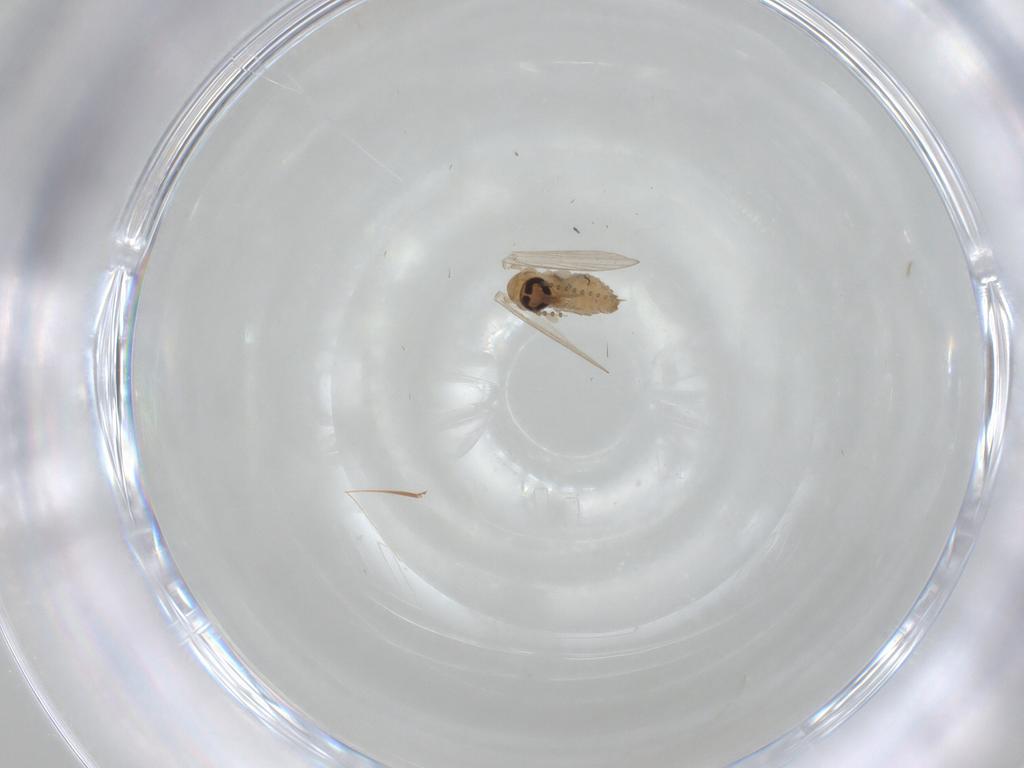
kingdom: Animalia
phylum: Arthropoda
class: Insecta
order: Diptera
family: Psychodidae
